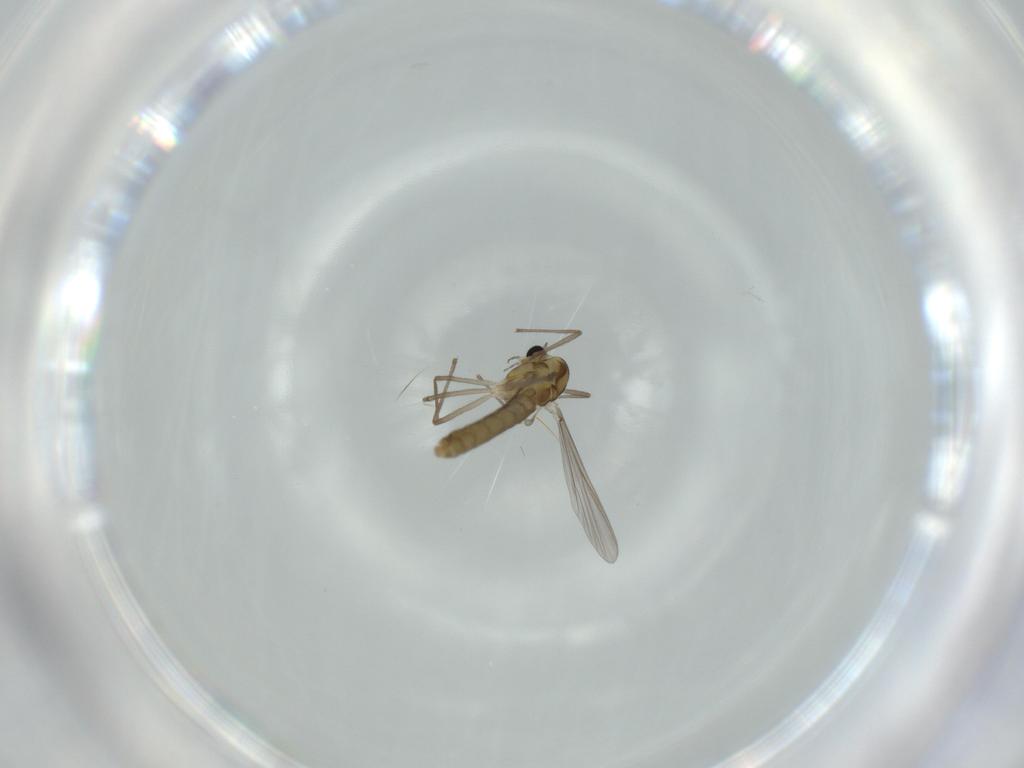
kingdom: Animalia
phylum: Arthropoda
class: Insecta
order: Diptera
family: Chironomidae
